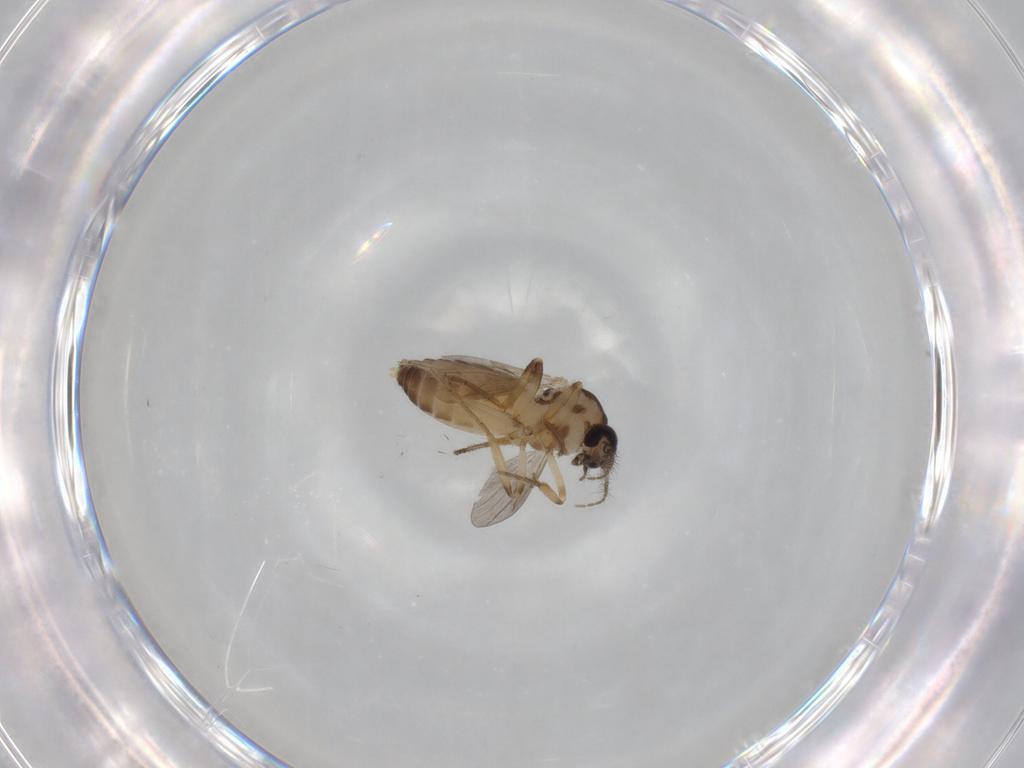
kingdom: Animalia
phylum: Arthropoda
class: Insecta
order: Diptera
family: Ceratopogonidae
